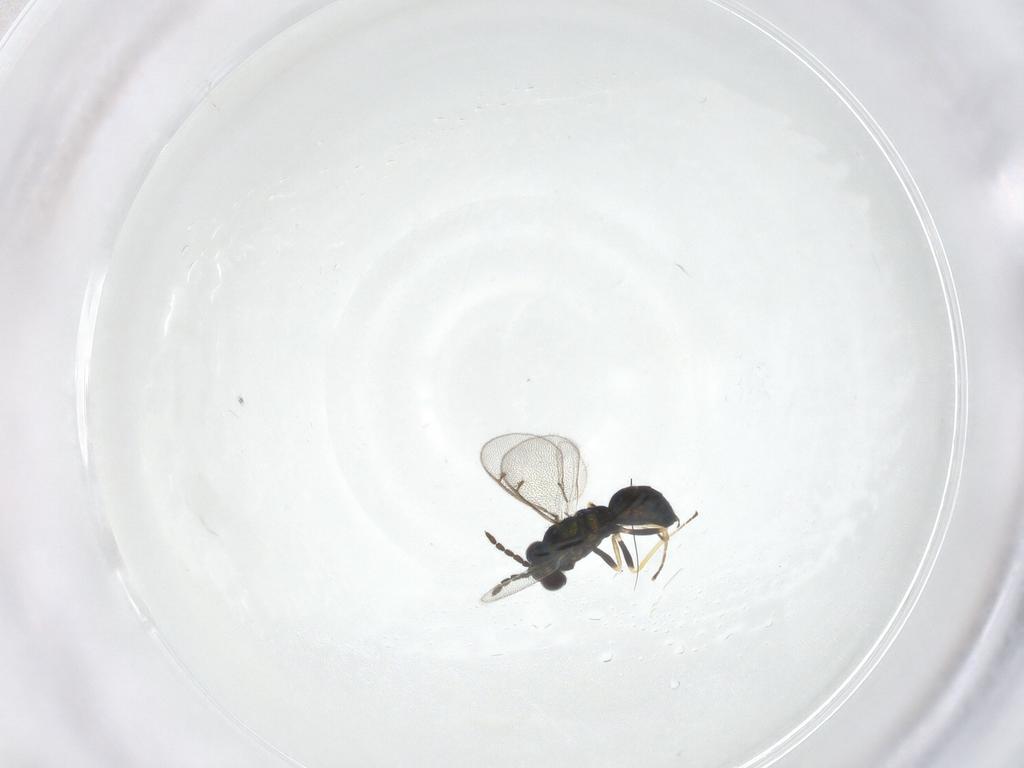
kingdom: Animalia
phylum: Arthropoda
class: Insecta
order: Hymenoptera
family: Eulophidae
